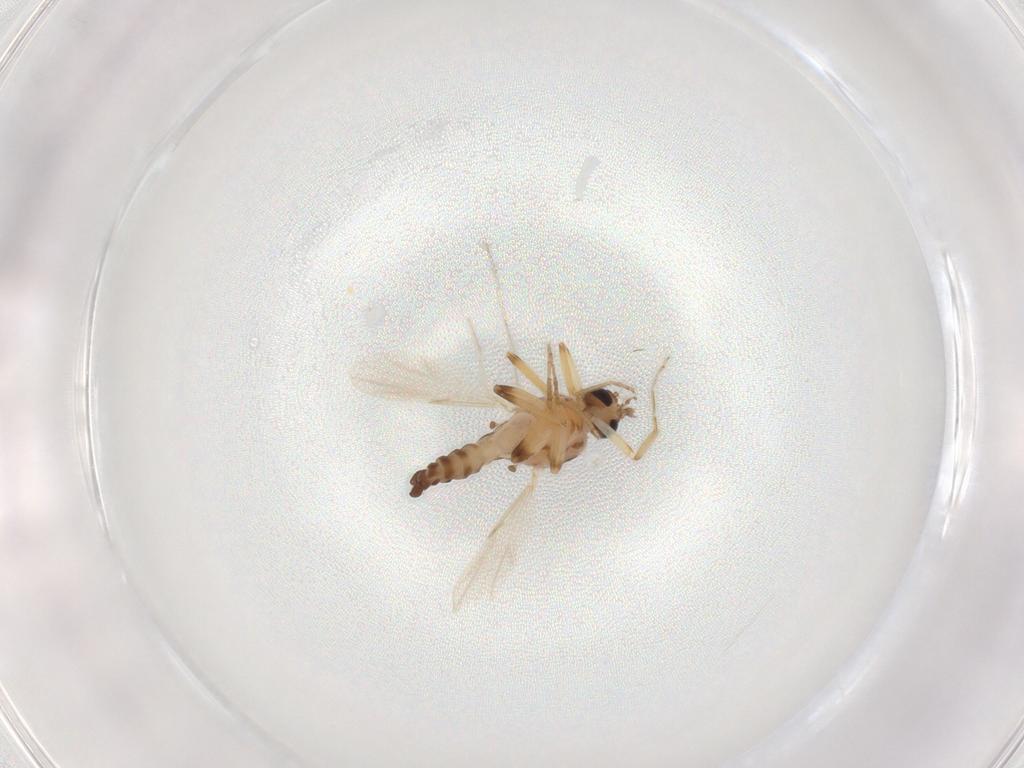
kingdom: Animalia
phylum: Arthropoda
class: Insecta
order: Diptera
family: Ceratopogonidae
